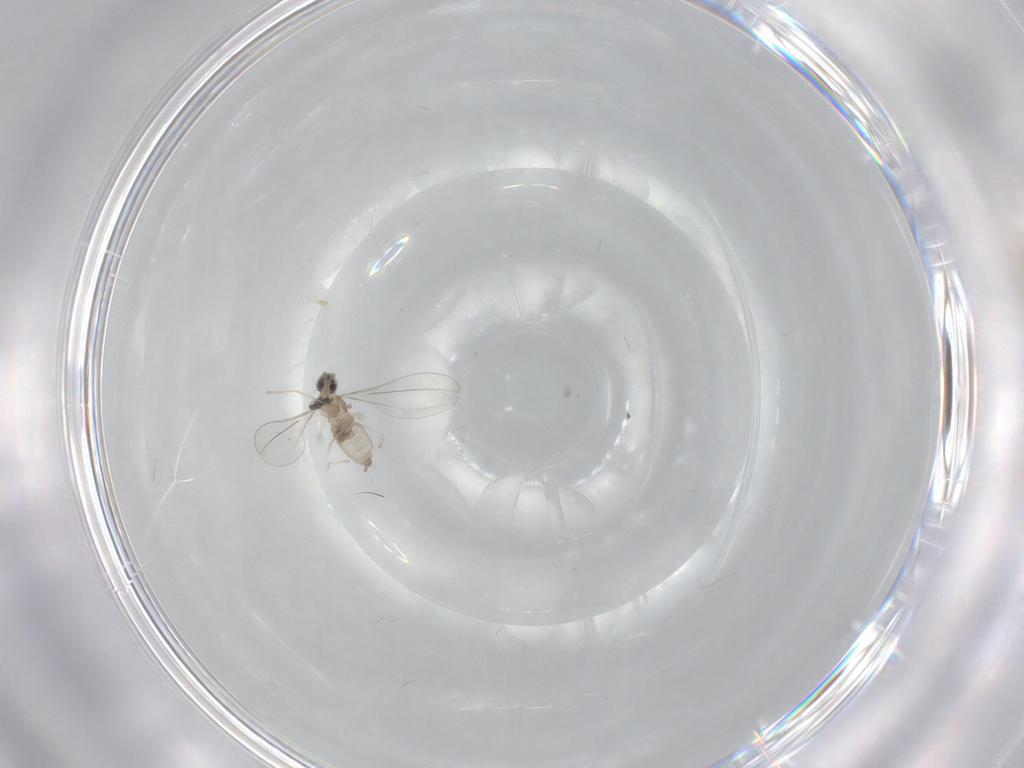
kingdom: Animalia
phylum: Arthropoda
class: Insecta
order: Diptera
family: Cecidomyiidae
